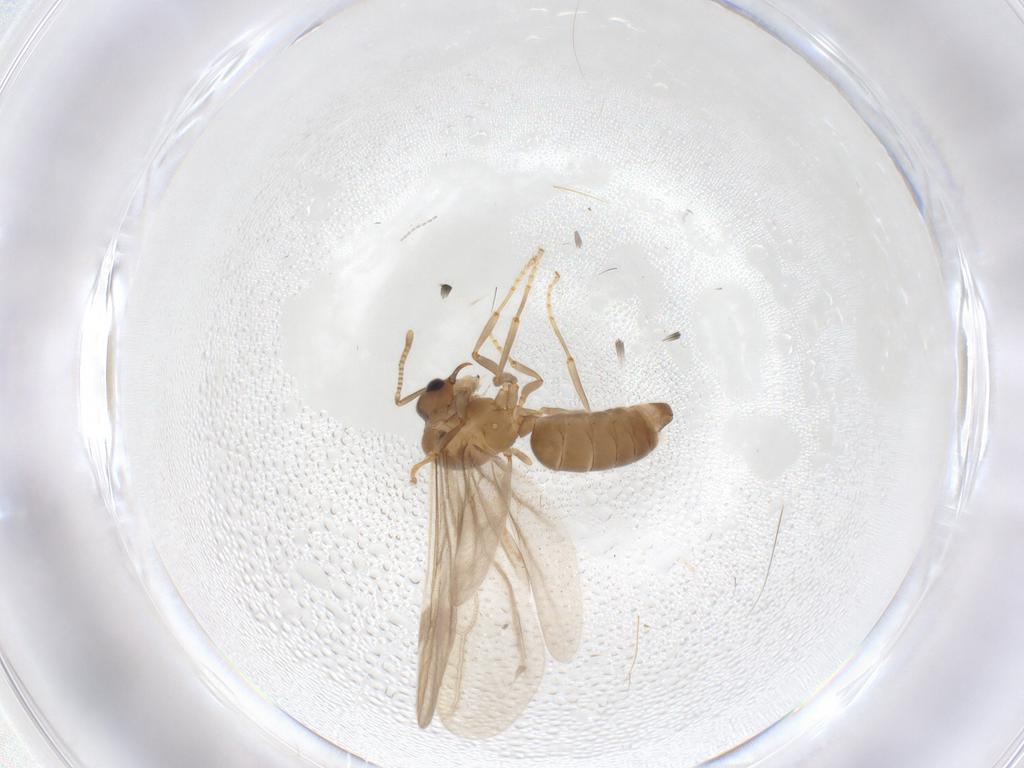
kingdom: Animalia
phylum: Arthropoda
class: Insecta
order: Hymenoptera
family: Formicidae
